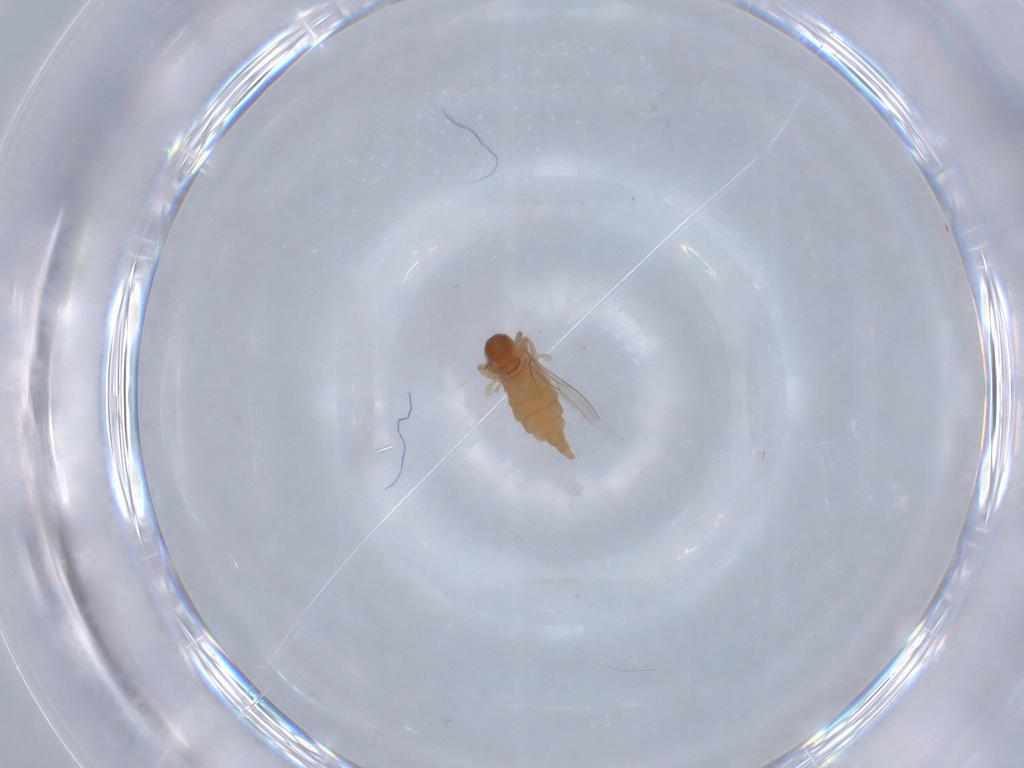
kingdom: Animalia
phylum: Arthropoda
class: Insecta
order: Diptera
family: Cecidomyiidae
